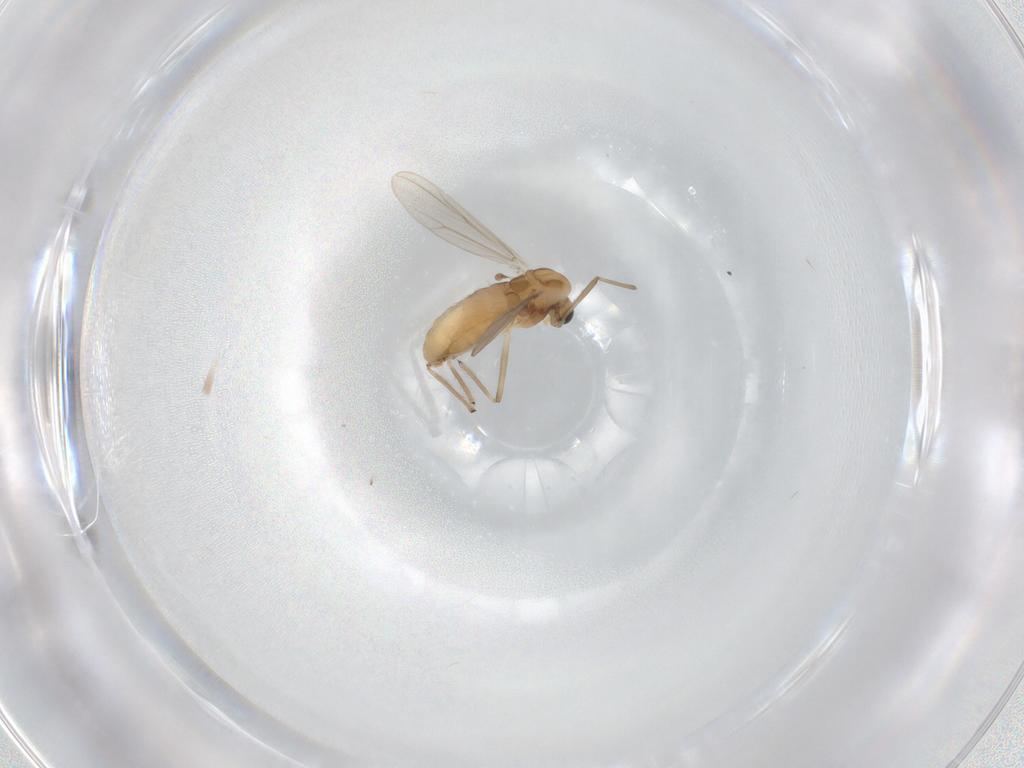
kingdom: Animalia
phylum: Arthropoda
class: Insecta
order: Diptera
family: Chironomidae
